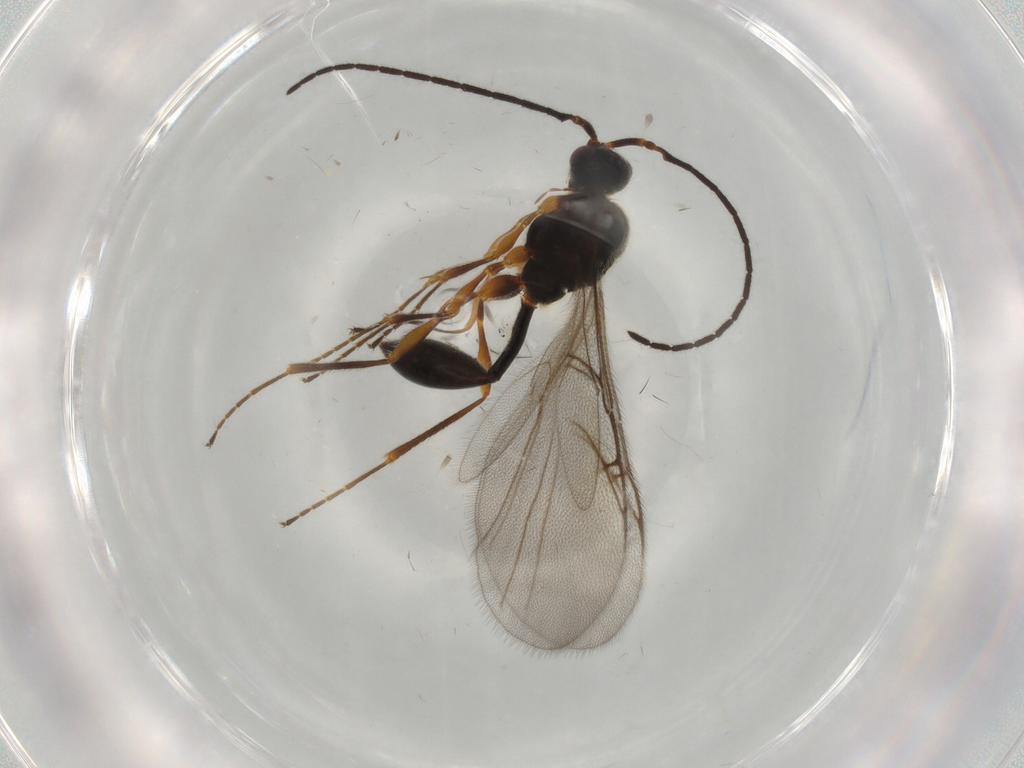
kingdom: Animalia
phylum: Arthropoda
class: Insecta
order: Hymenoptera
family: Diapriidae
